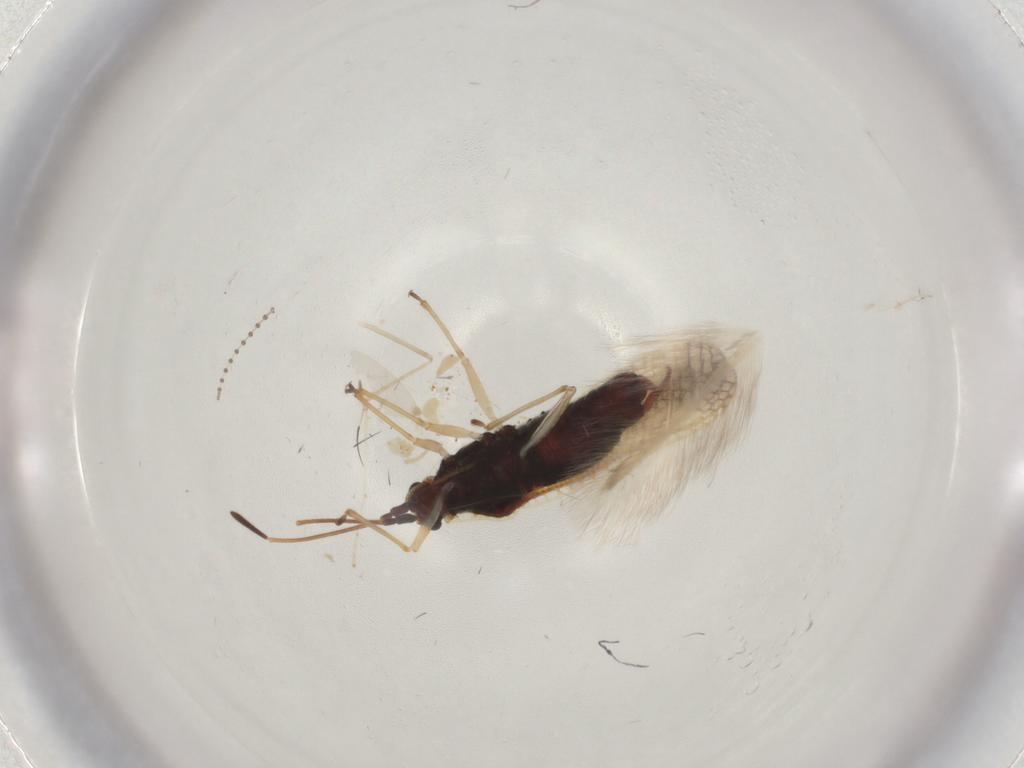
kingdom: Animalia
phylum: Arthropoda
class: Insecta
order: Hemiptera
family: Tingidae
